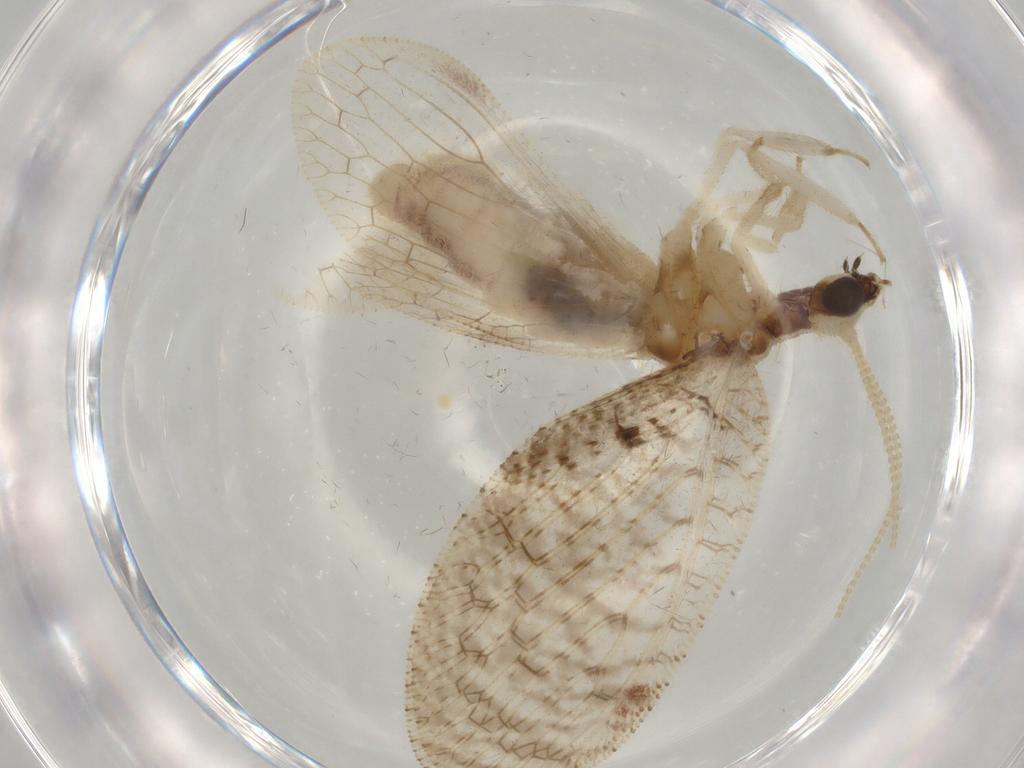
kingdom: Animalia
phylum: Arthropoda
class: Insecta
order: Neuroptera
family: Hemerobiidae
